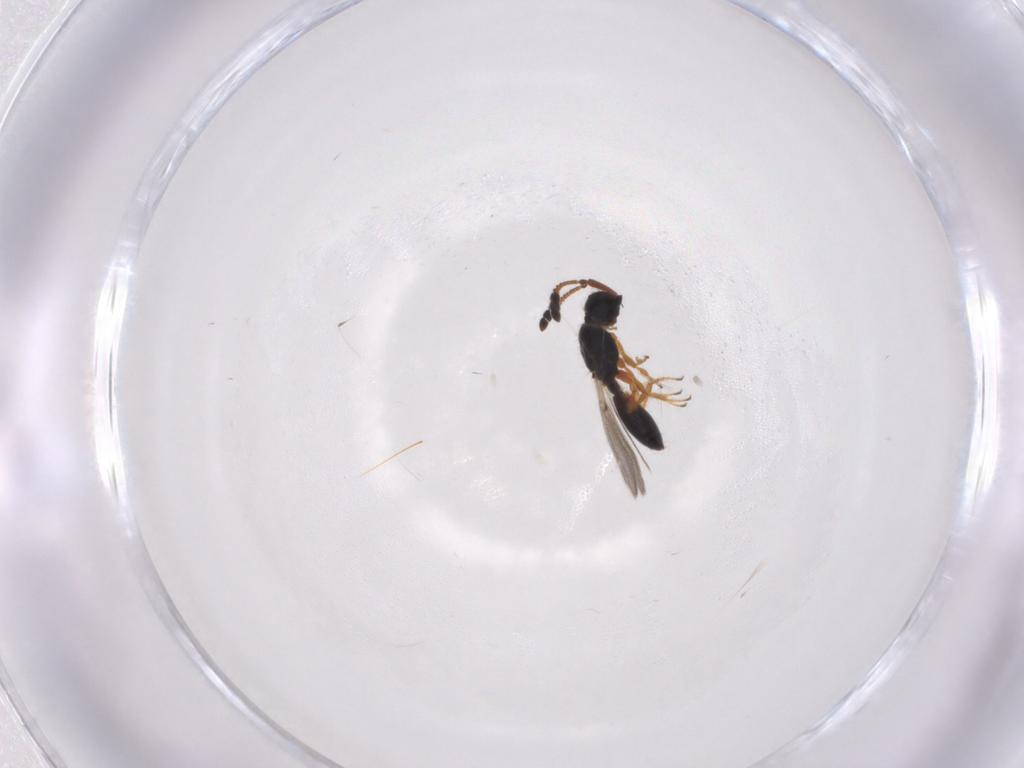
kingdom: Animalia
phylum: Arthropoda
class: Insecta
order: Hymenoptera
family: Diapriidae
